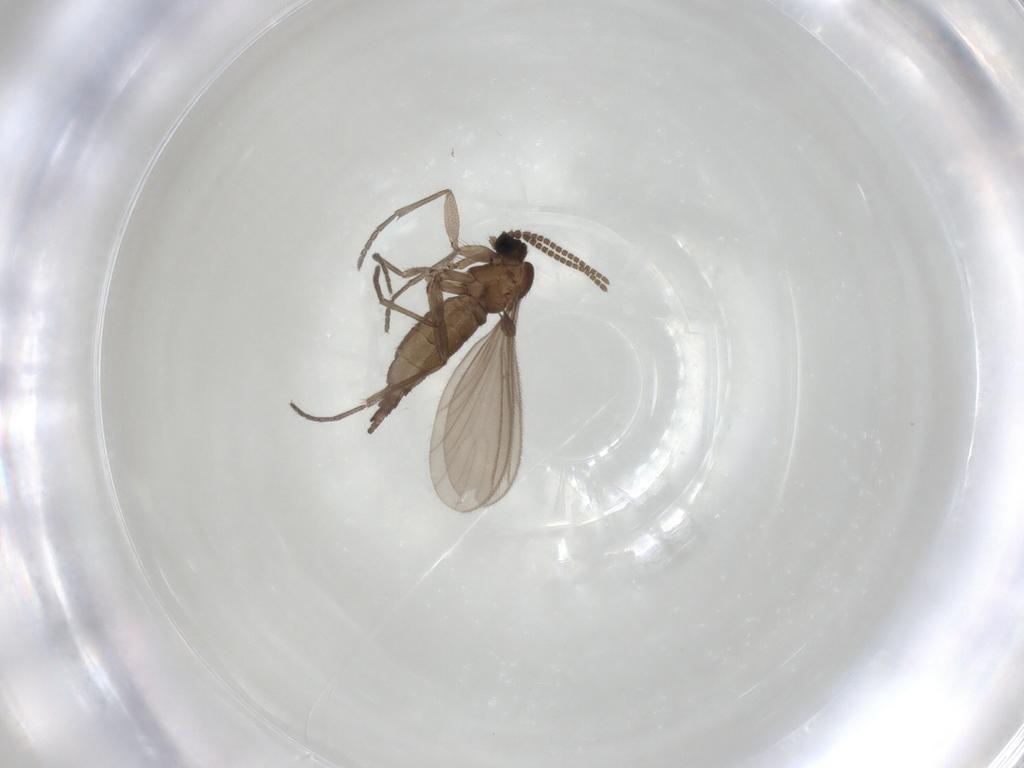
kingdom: Animalia
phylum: Arthropoda
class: Insecta
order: Diptera
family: Sciaridae
